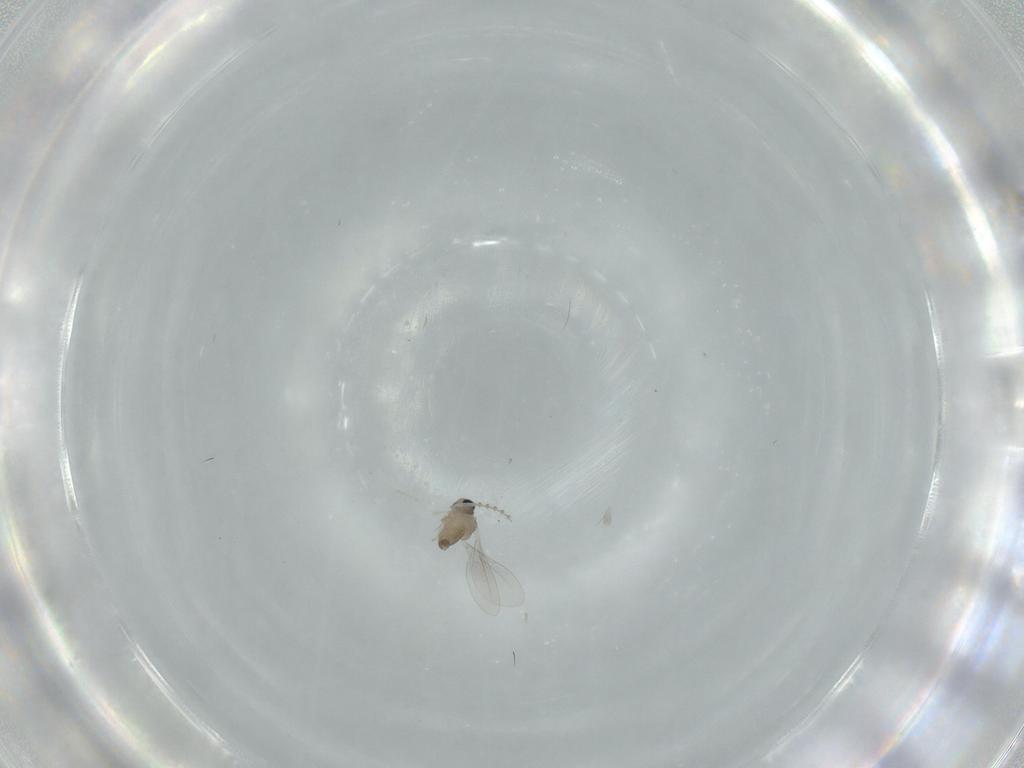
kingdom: Animalia
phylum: Arthropoda
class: Insecta
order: Diptera
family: Cecidomyiidae
